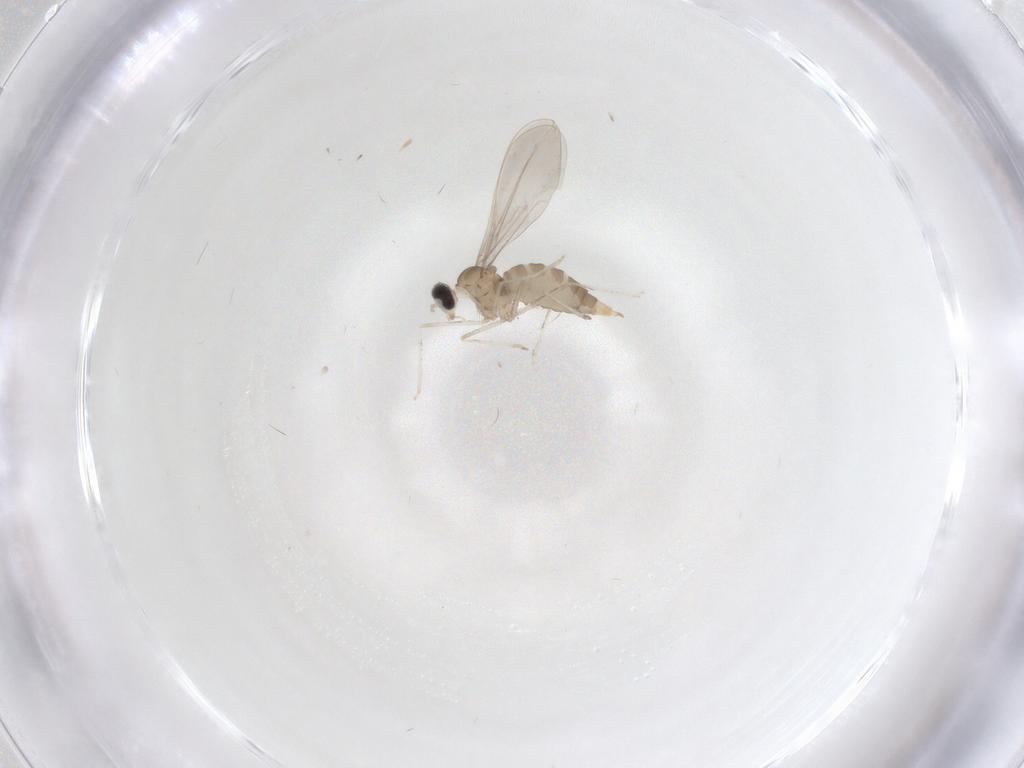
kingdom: Animalia
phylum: Arthropoda
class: Insecta
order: Diptera
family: Cecidomyiidae
